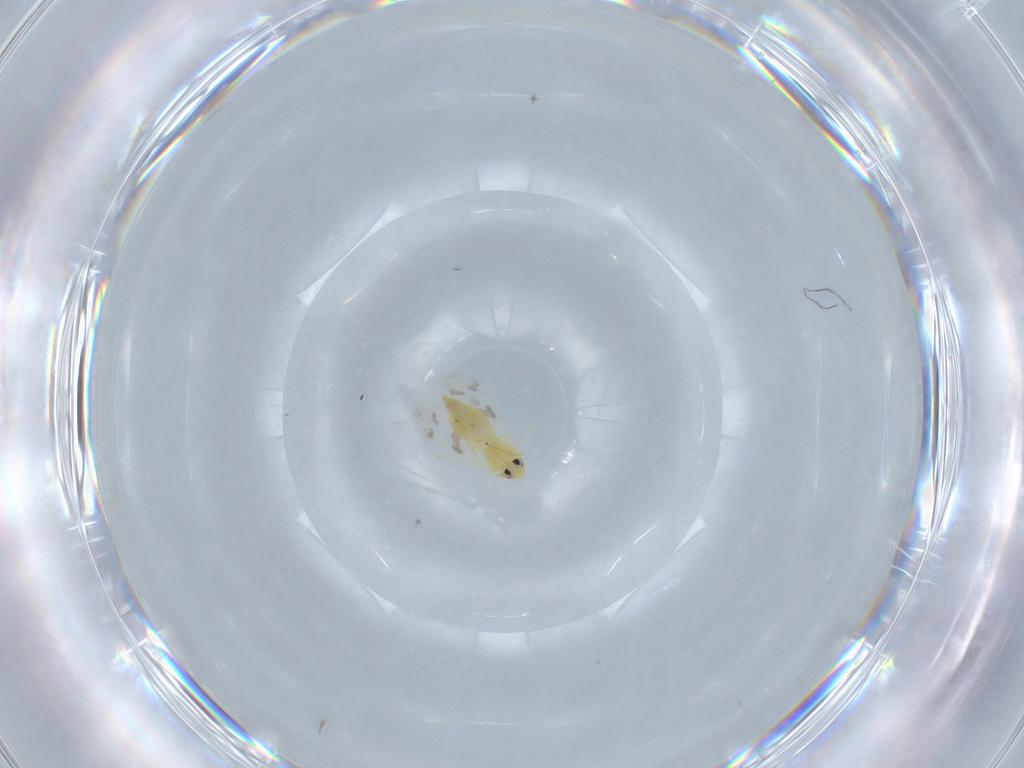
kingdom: Animalia
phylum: Arthropoda
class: Insecta
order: Hemiptera
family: Aleyrodidae
